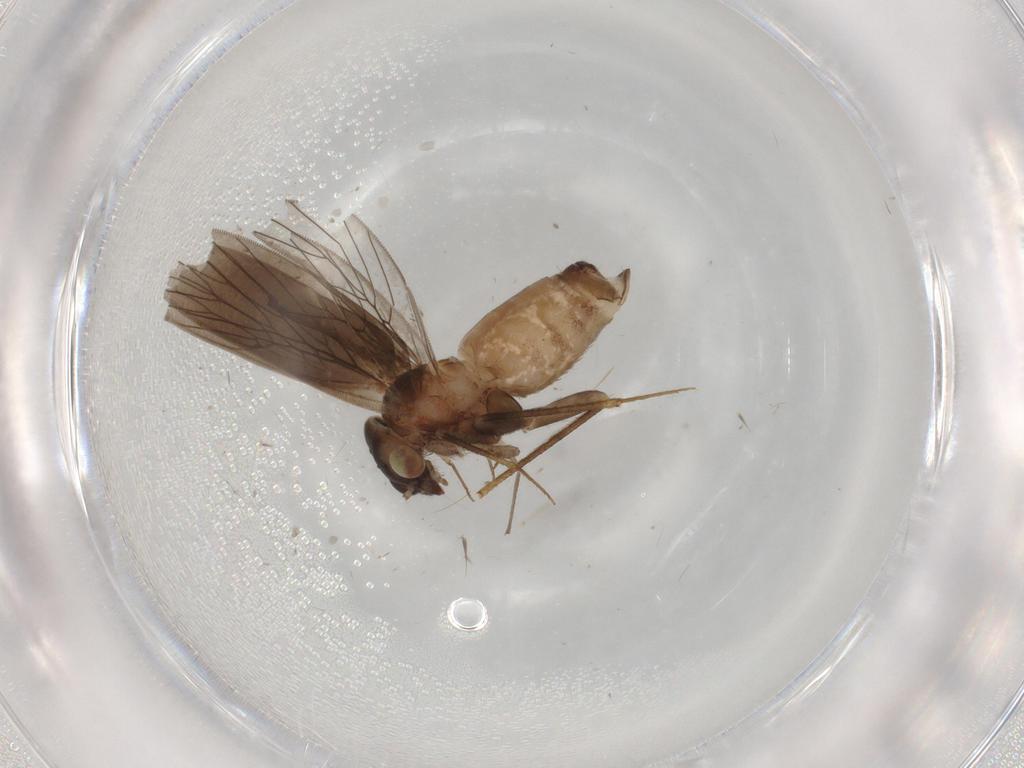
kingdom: Animalia
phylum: Arthropoda
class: Insecta
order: Psocodea
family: Lepidopsocidae
